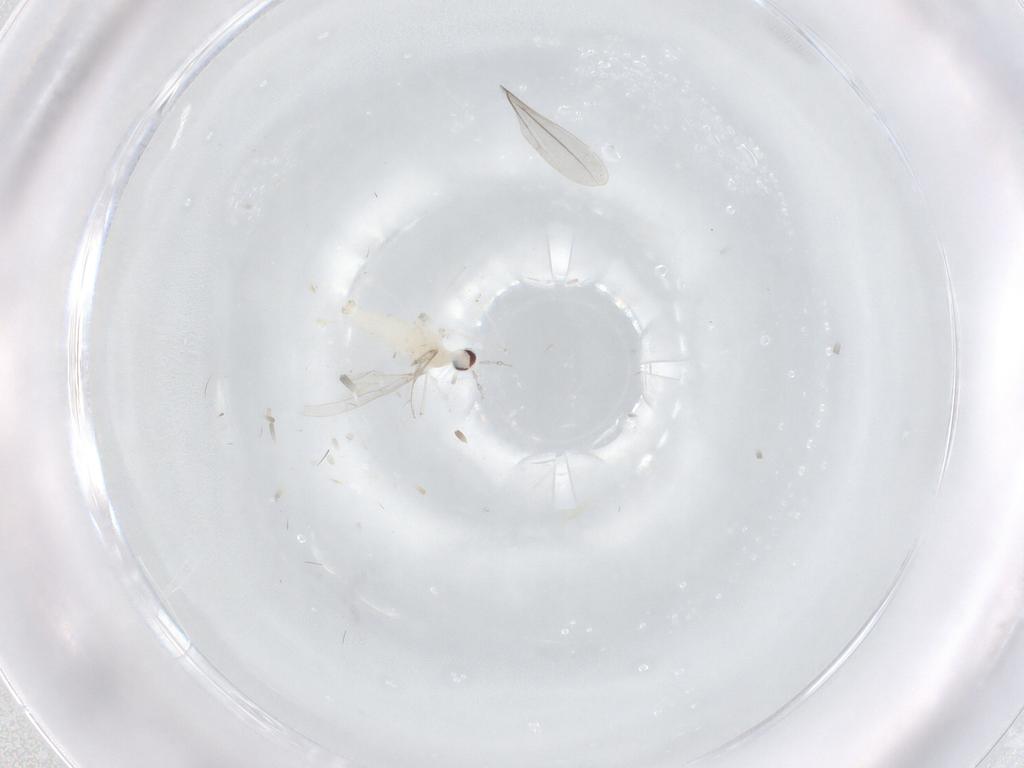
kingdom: Animalia
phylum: Arthropoda
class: Insecta
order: Diptera
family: Cecidomyiidae
